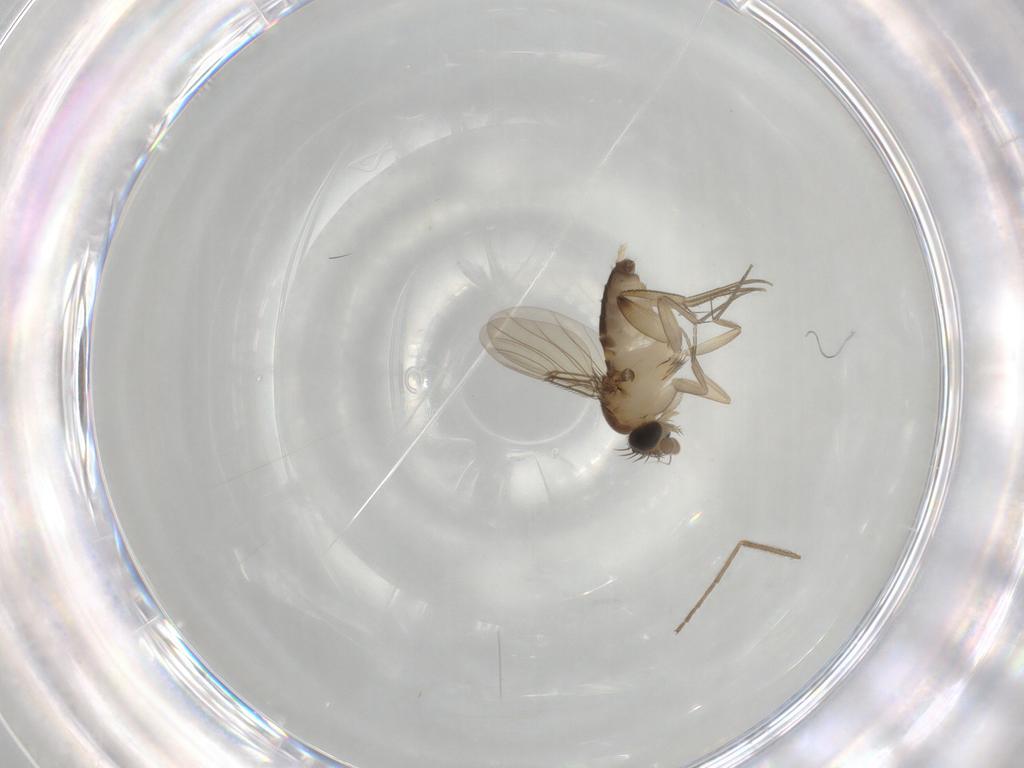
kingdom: Animalia
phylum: Arthropoda
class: Insecta
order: Diptera
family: Phoridae
